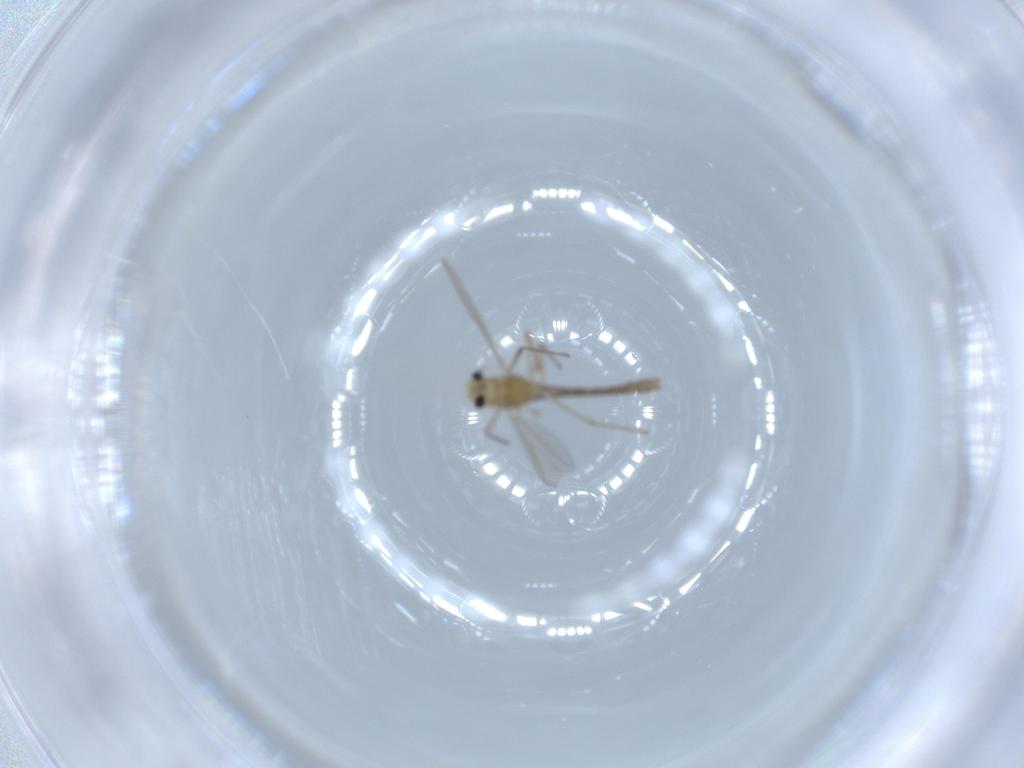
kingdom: Animalia
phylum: Arthropoda
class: Insecta
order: Diptera
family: Chironomidae
